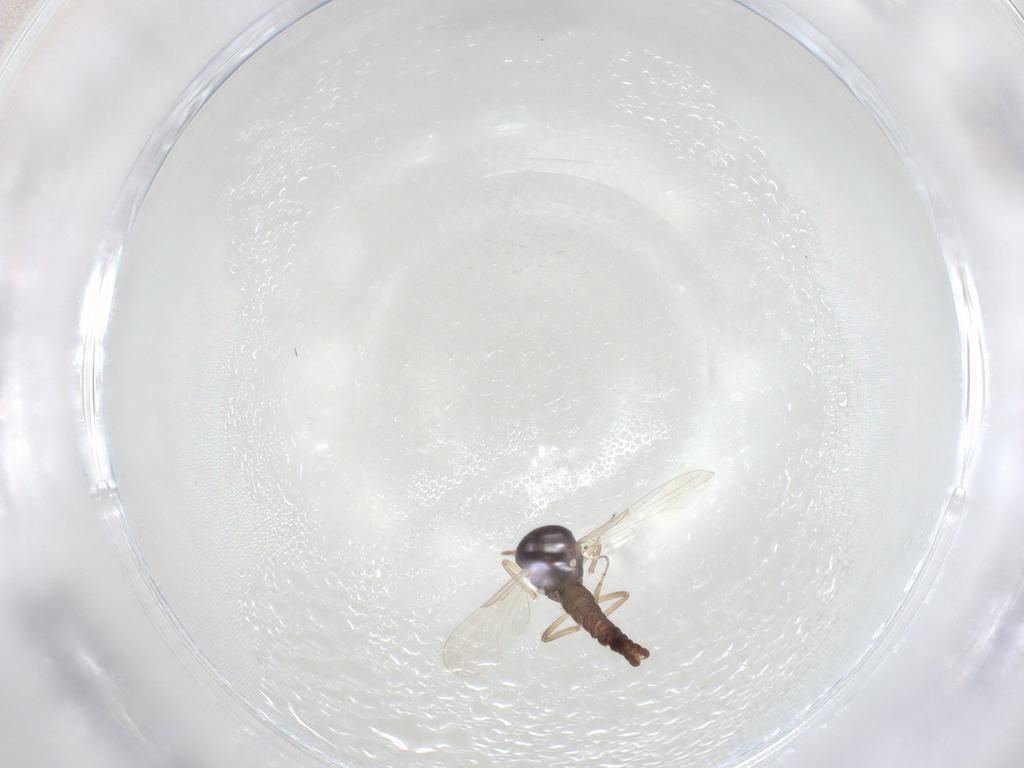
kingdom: Animalia
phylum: Arthropoda
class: Insecta
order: Diptera
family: Ceratopogonidae
